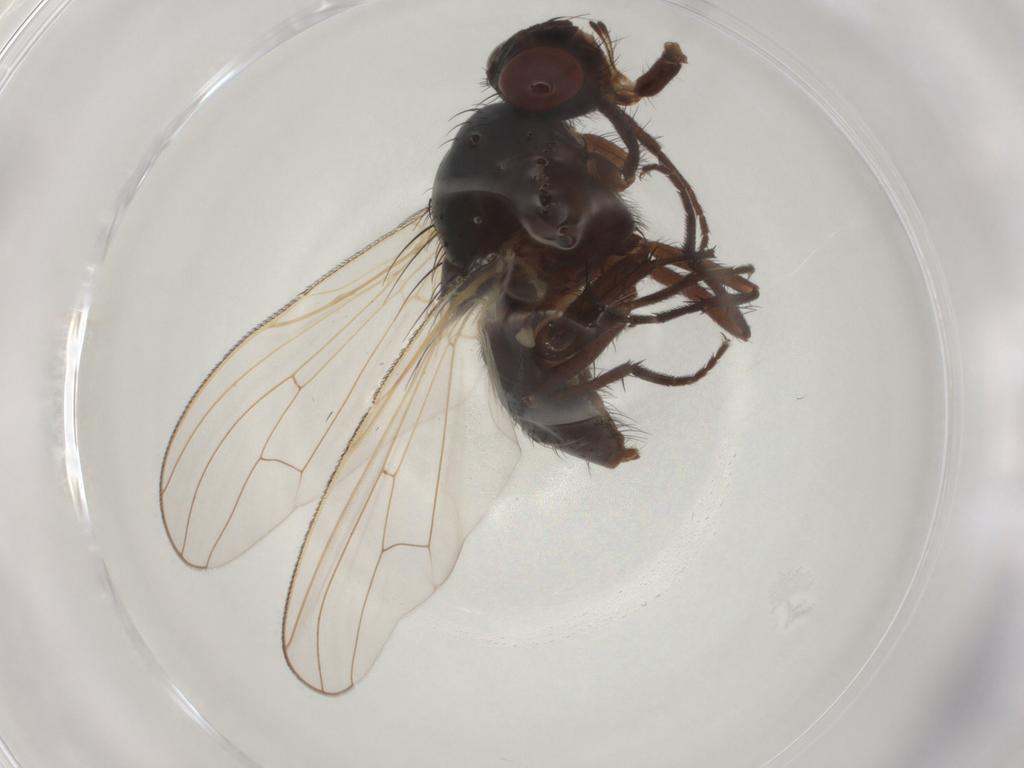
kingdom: Animalia
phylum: Arthropoda
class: Insecta
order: Diptera
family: Anthomyiidae
